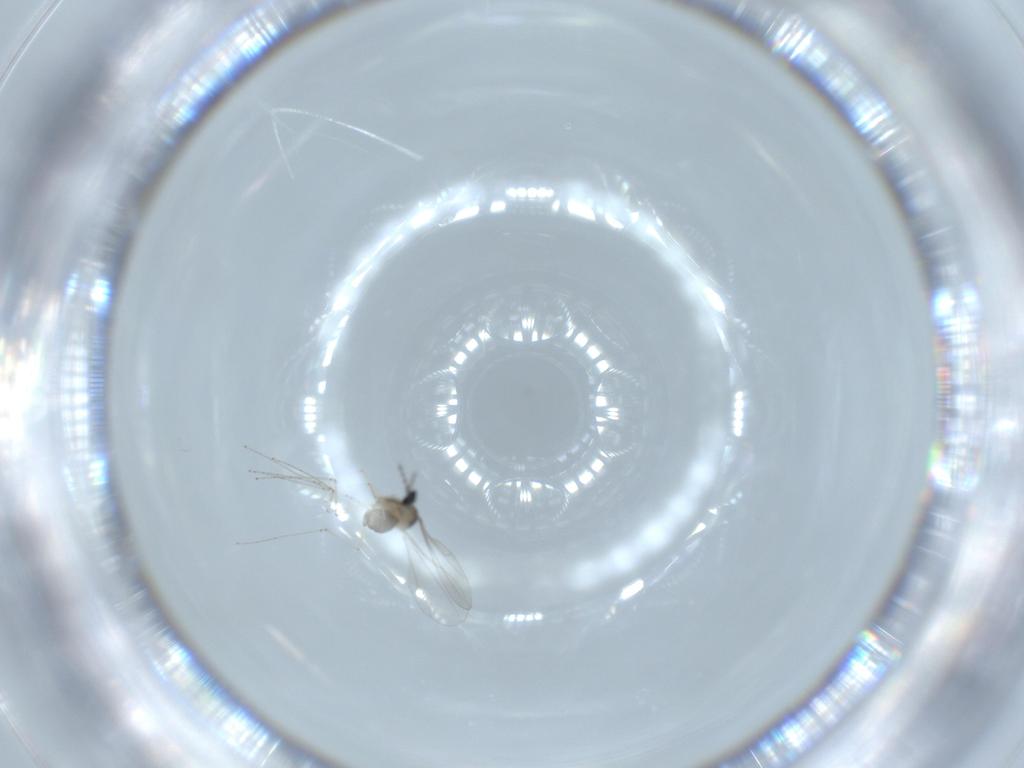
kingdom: Animalia
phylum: Arthropoda
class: Insecta
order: Diptera
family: Cecidomyiidae
